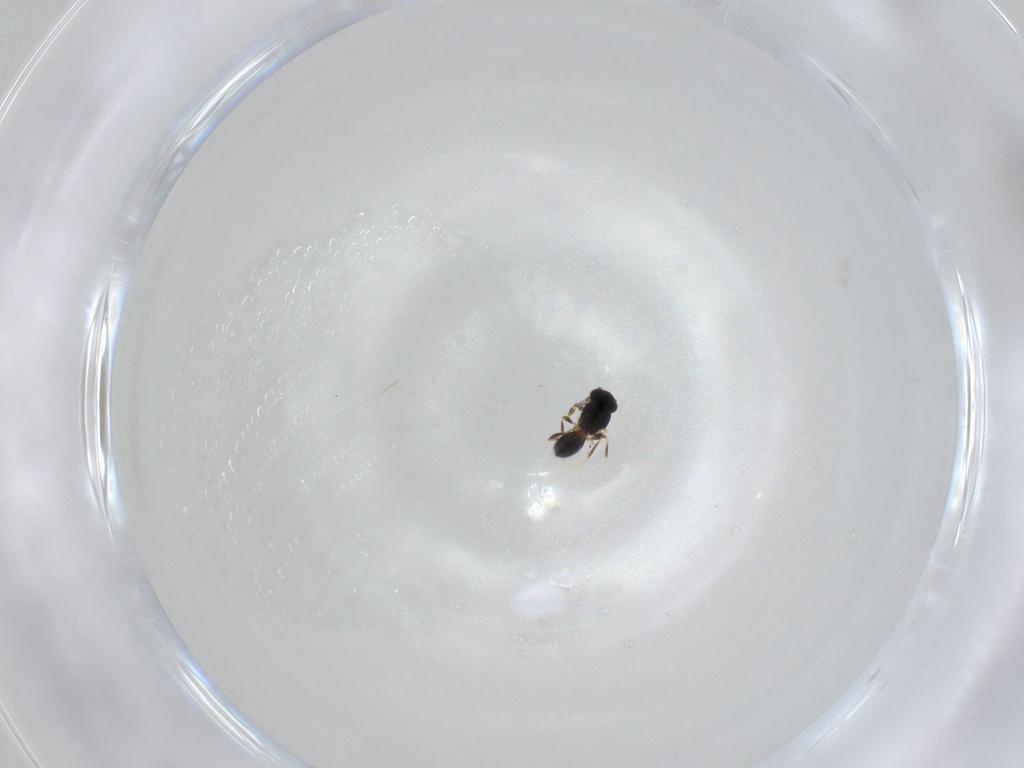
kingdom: Animalia
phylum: Arthropoda
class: Insecta
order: Hymenoptera
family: Platygastridae
